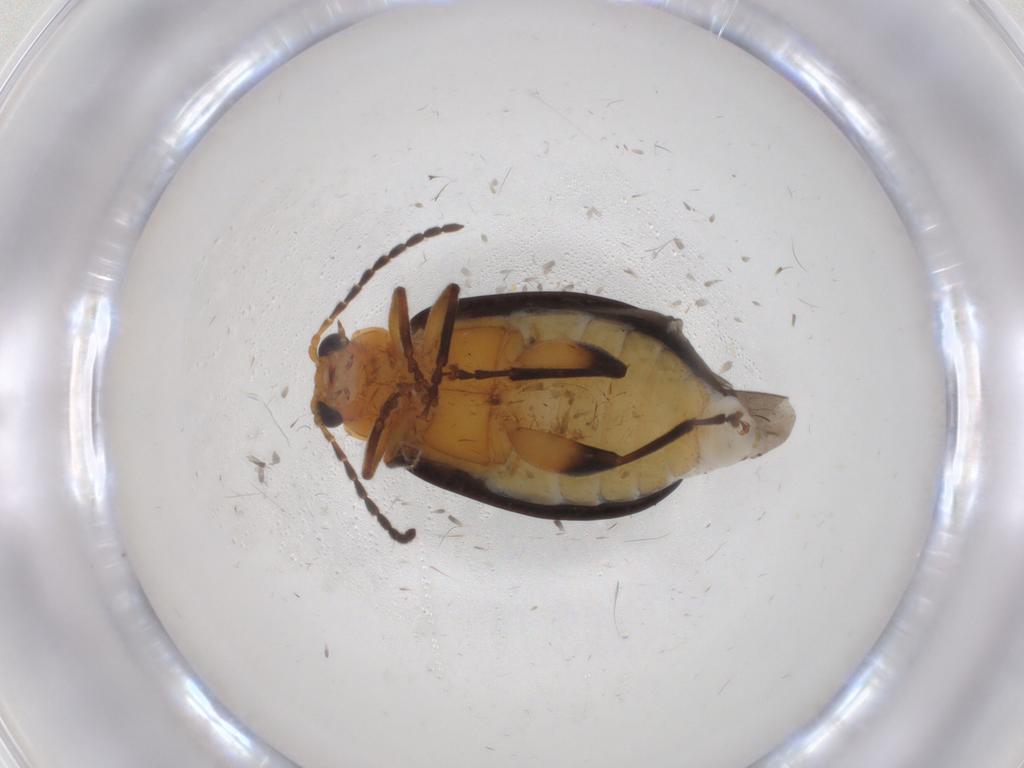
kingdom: Animalia
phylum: Arthropoda
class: Insecta
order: Coleoptera
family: Chrysomelidae
